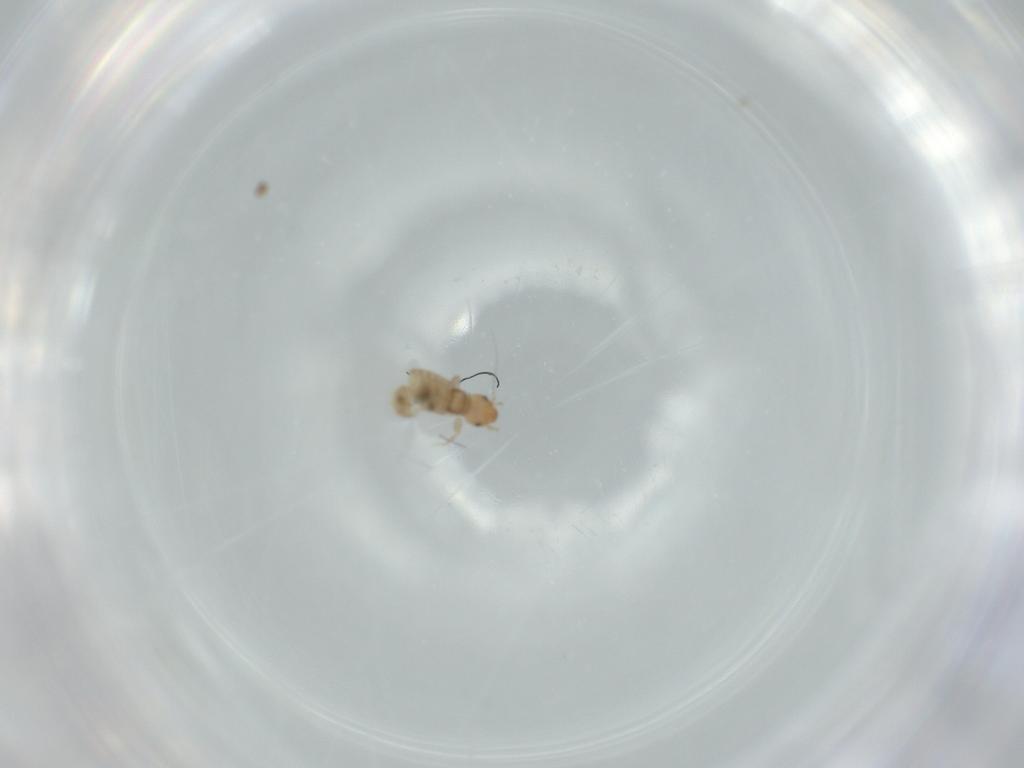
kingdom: Animalia
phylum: Arthropoda
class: Insecta
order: Psocodea
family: Liposcelididae
